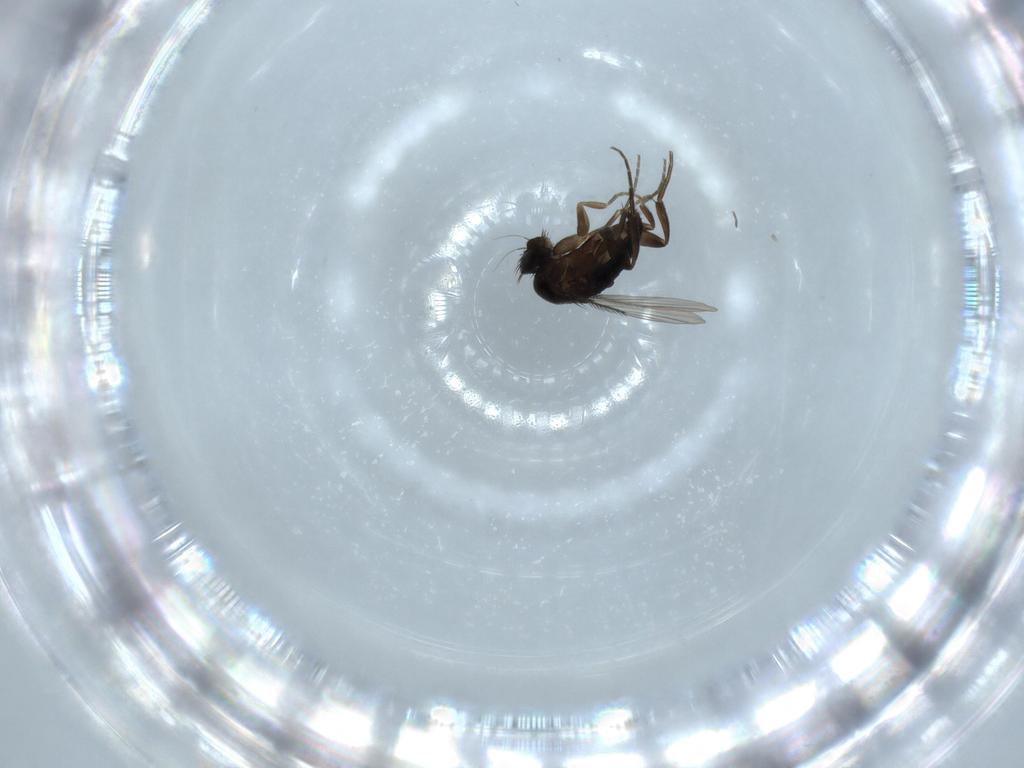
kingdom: Animalia
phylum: Arthropoda
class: Insecta
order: Diptera
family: Phoridae
